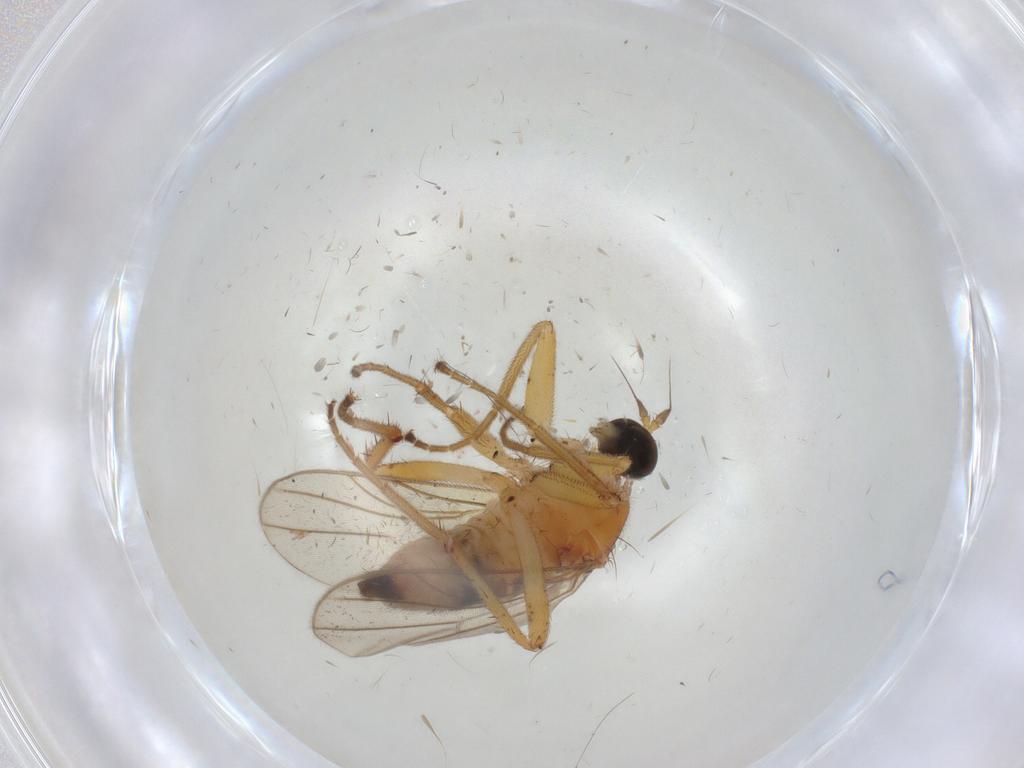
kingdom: Animalia
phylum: Arthropoda
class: Insecta
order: Diptera
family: Hybotidae
